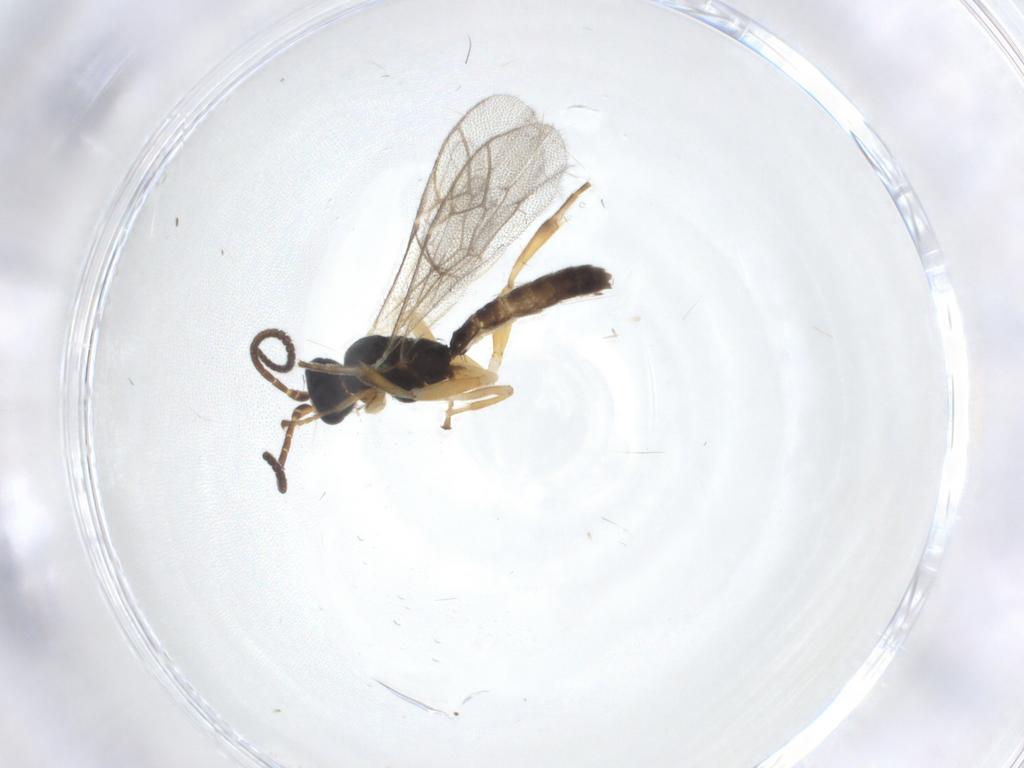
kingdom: Animalia
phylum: Arthropoda
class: Insecta
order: Hymenoptera
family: Ichneumonidae
